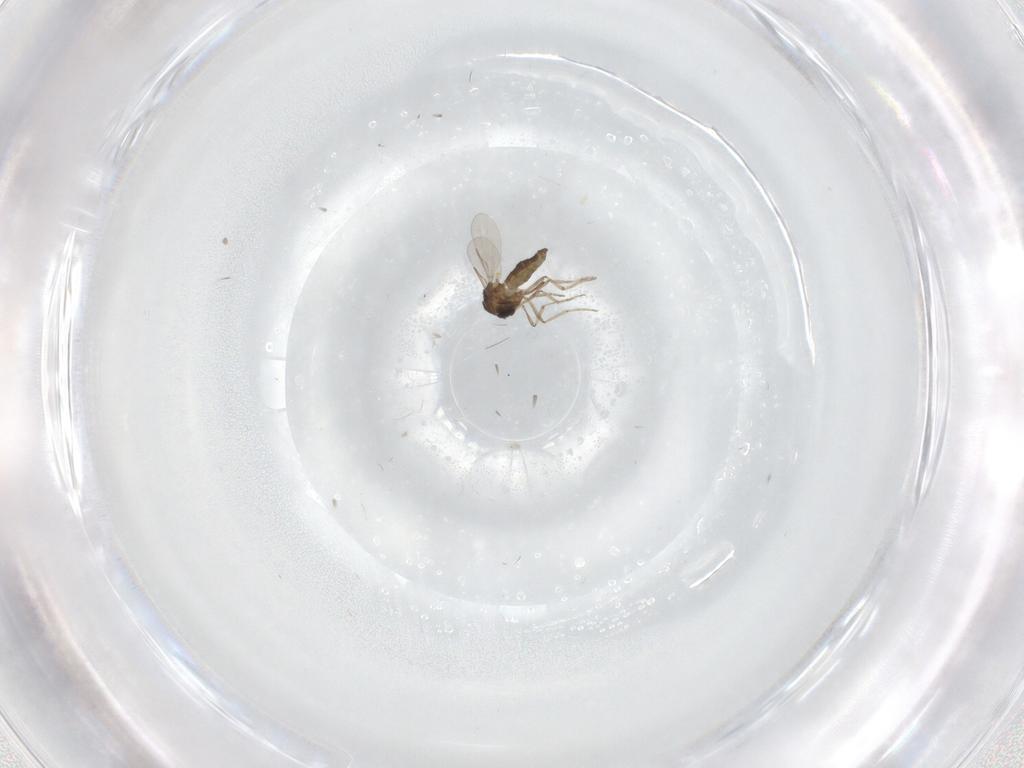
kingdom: Animalia
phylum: Arthropoda
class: Insecta
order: Diptera
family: Ceratopogonidae
